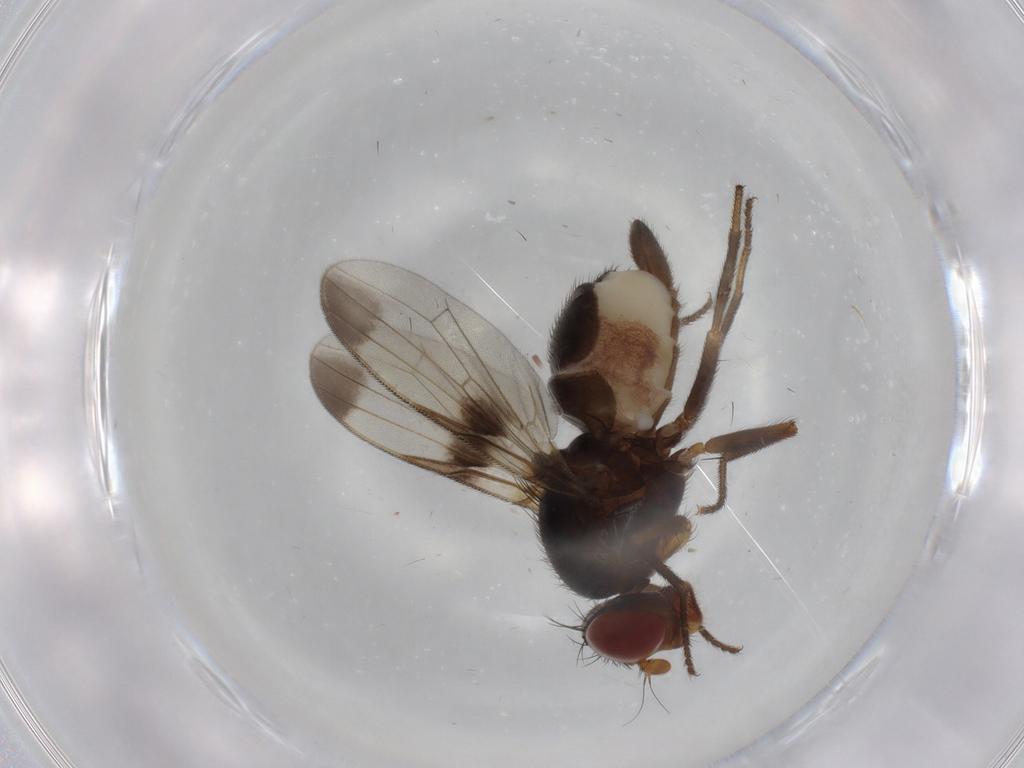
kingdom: Animalia
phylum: Arthropoda
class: Insecta
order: Diptera
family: Ulidiidae
